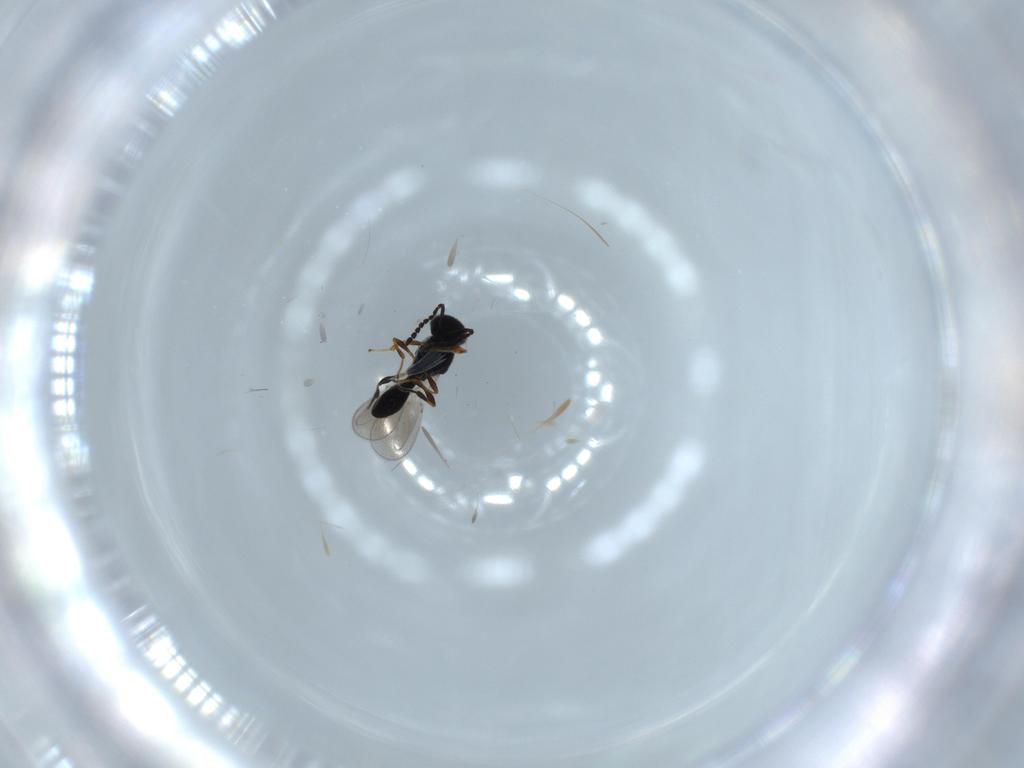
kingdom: Animalia
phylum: Arthropoda
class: Insecta
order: Hymenoptera
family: Platygastridae
